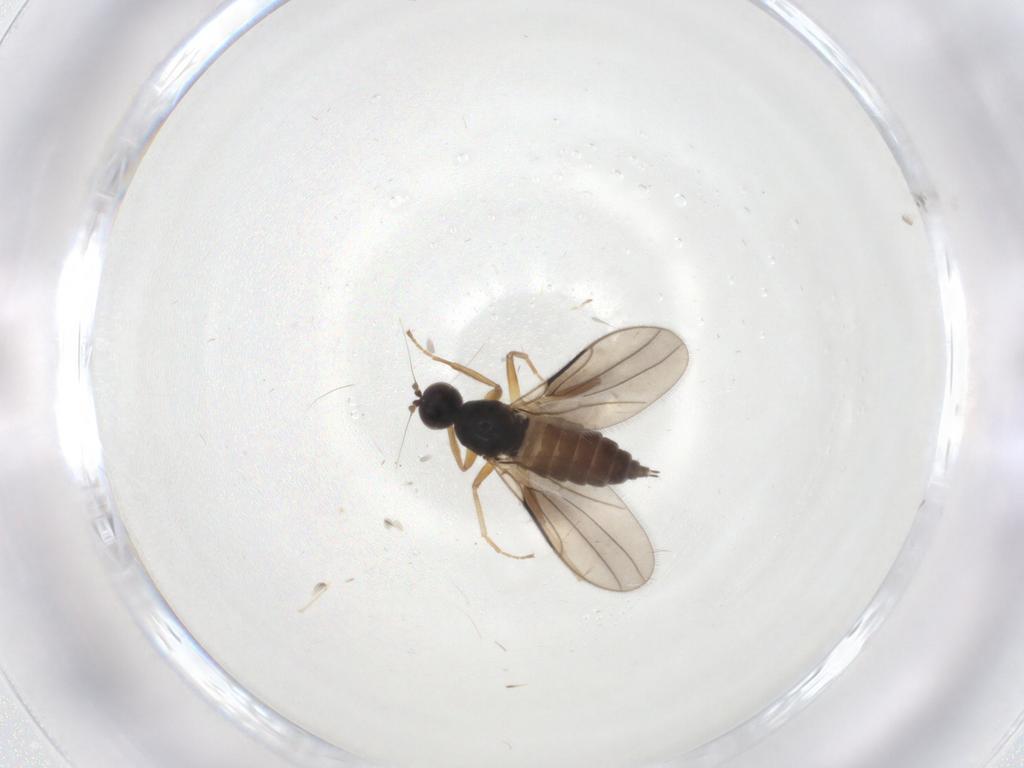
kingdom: Animalia
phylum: Arthropoda
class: Insecta
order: Diptera
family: Hybotidae
